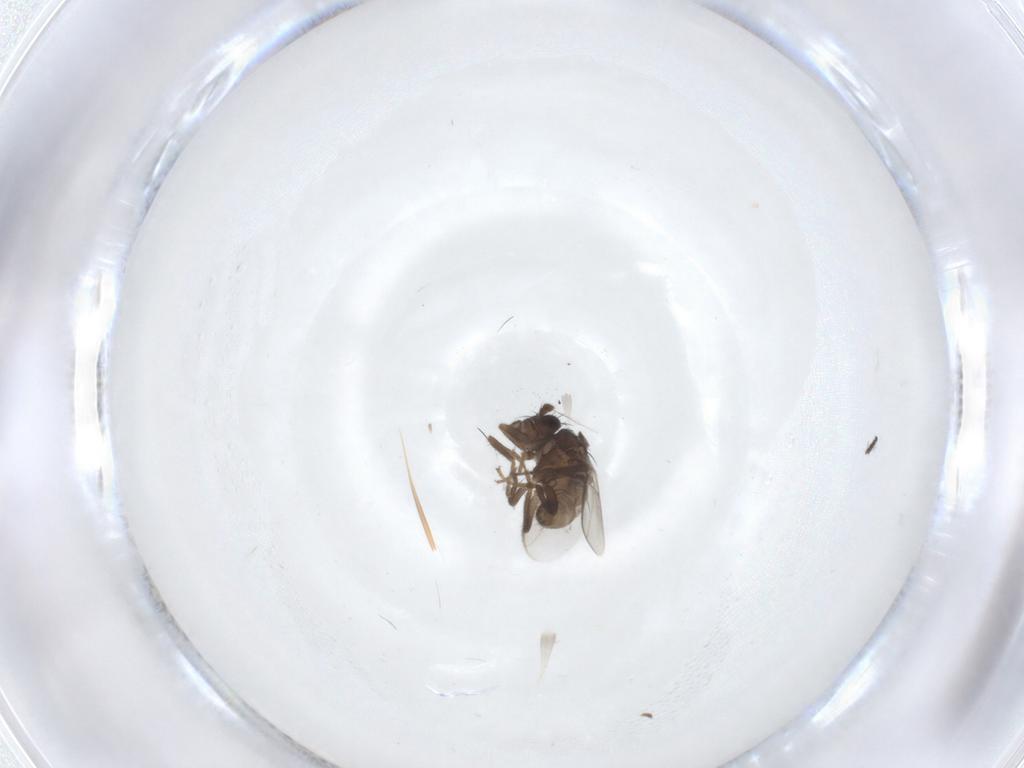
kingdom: Animalia
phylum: Arthropoda
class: Insecta
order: Diptera
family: Sphaeroceridae
